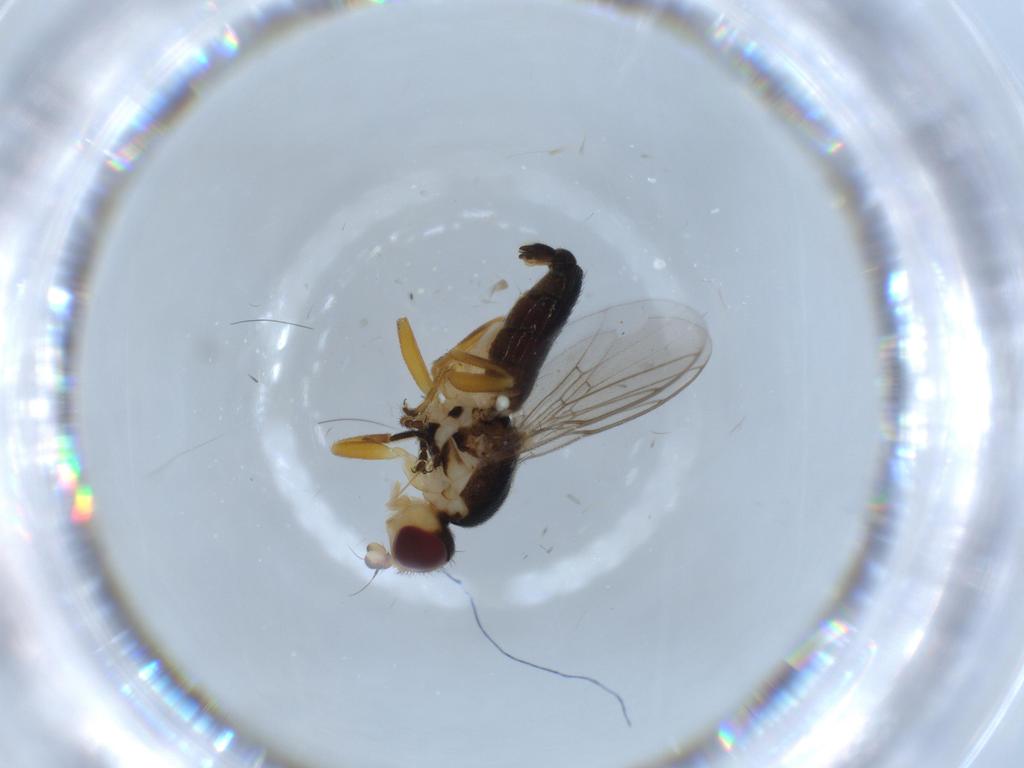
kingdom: Animalia
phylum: Arthropoda
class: Insecta
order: Diptera
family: Chloropidae
